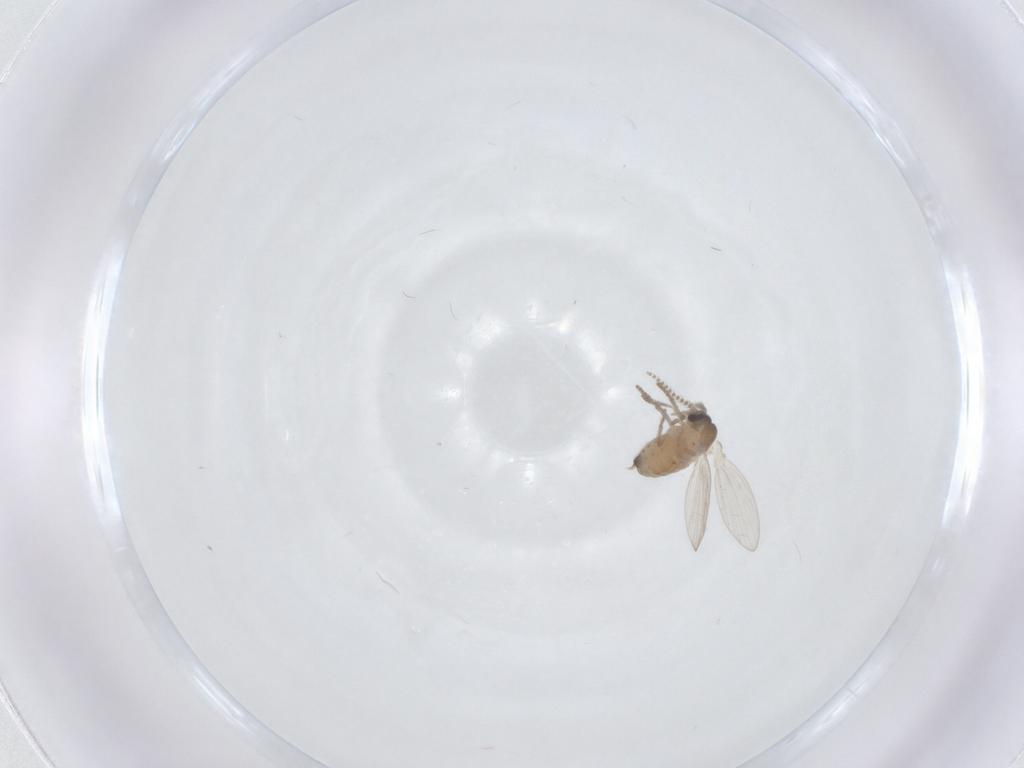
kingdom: Animalia
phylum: Arthropoda
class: Insecta
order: Diptera
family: Psychodidae
